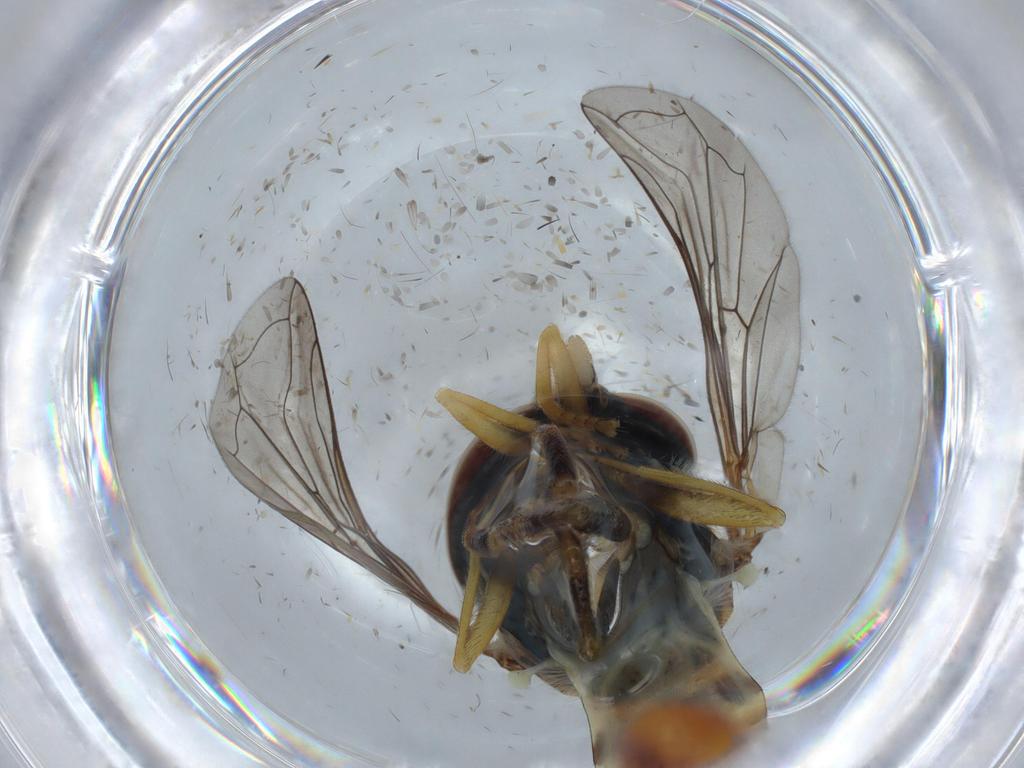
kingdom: Animalia
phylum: Arthropoda
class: Insecta
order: Diptera
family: Syrphidae
